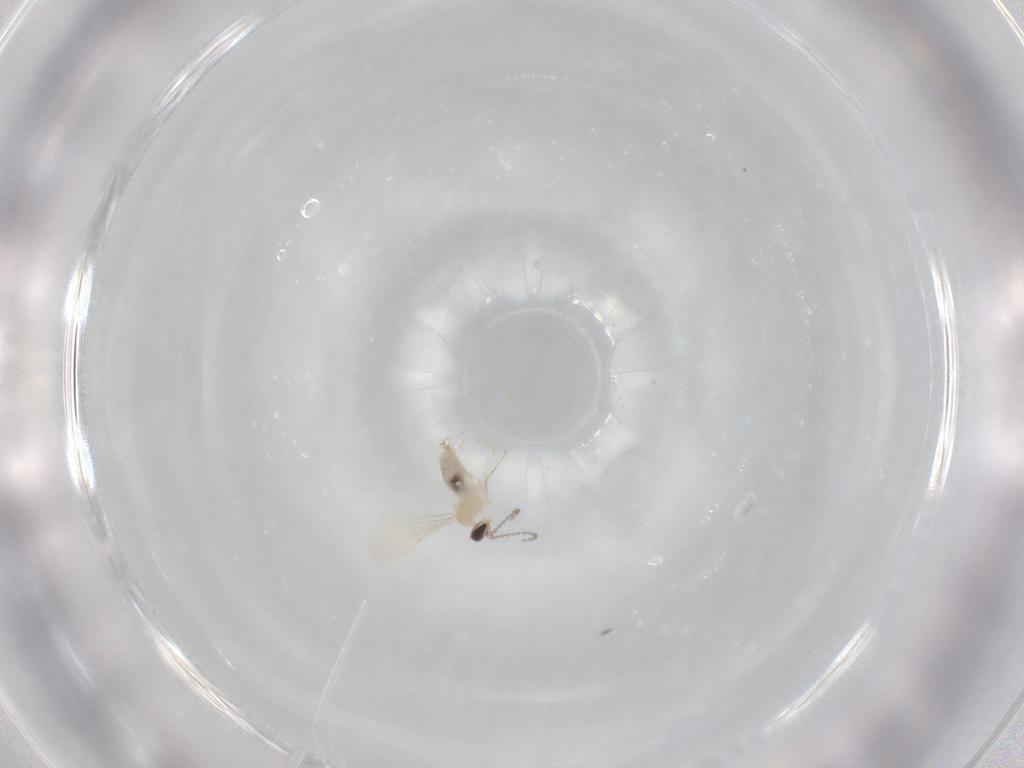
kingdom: Animalia
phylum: Arthropoda
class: Insecta
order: Diptera
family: Cecidomyiidae
